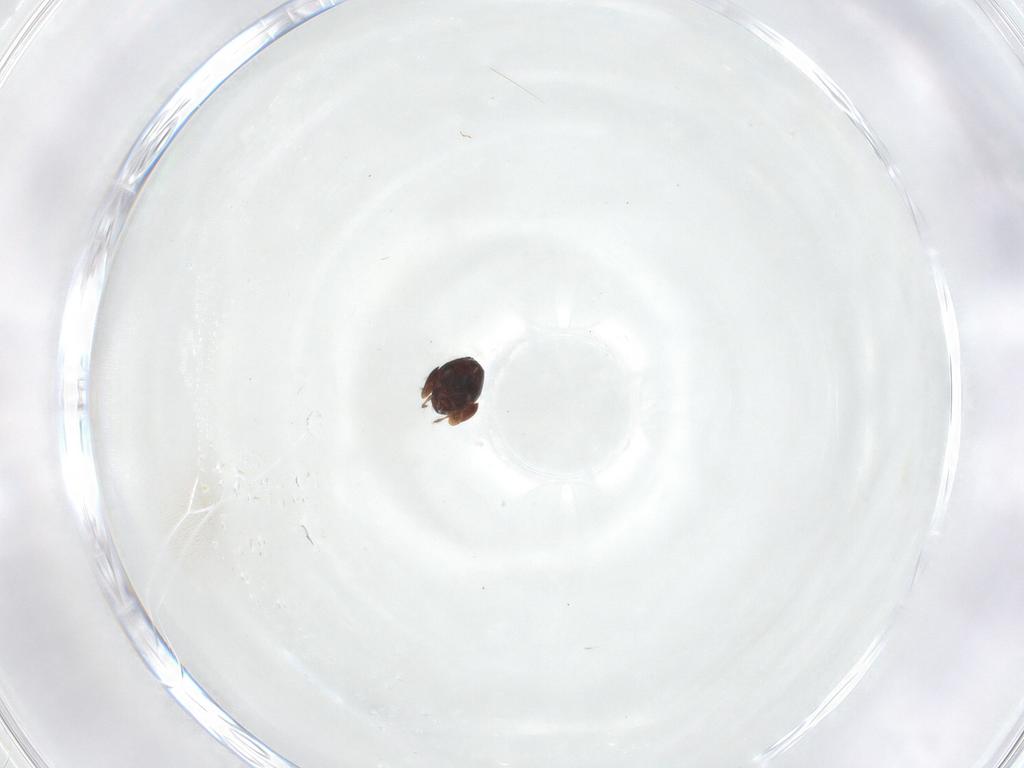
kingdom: Animalia
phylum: Arthropoda
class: Arachnida
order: Sarcoptiformes
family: Galumnidae
